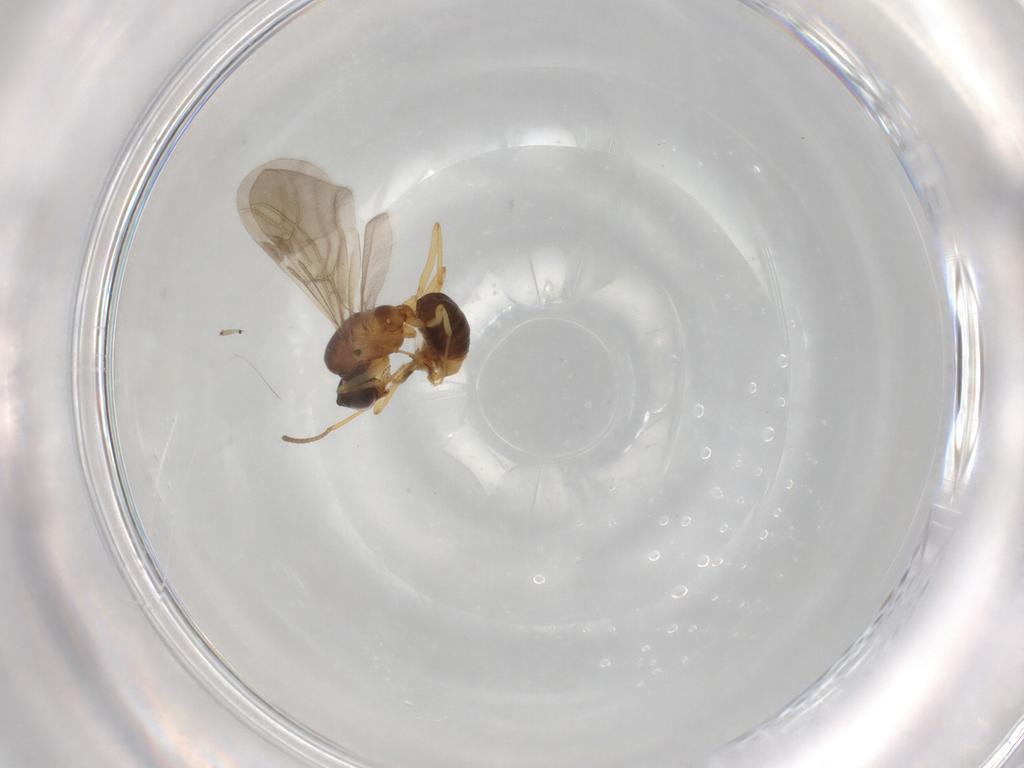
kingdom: Animalia
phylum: Arthropoda
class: Insecta
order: Hymenoptera
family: Formicidae
